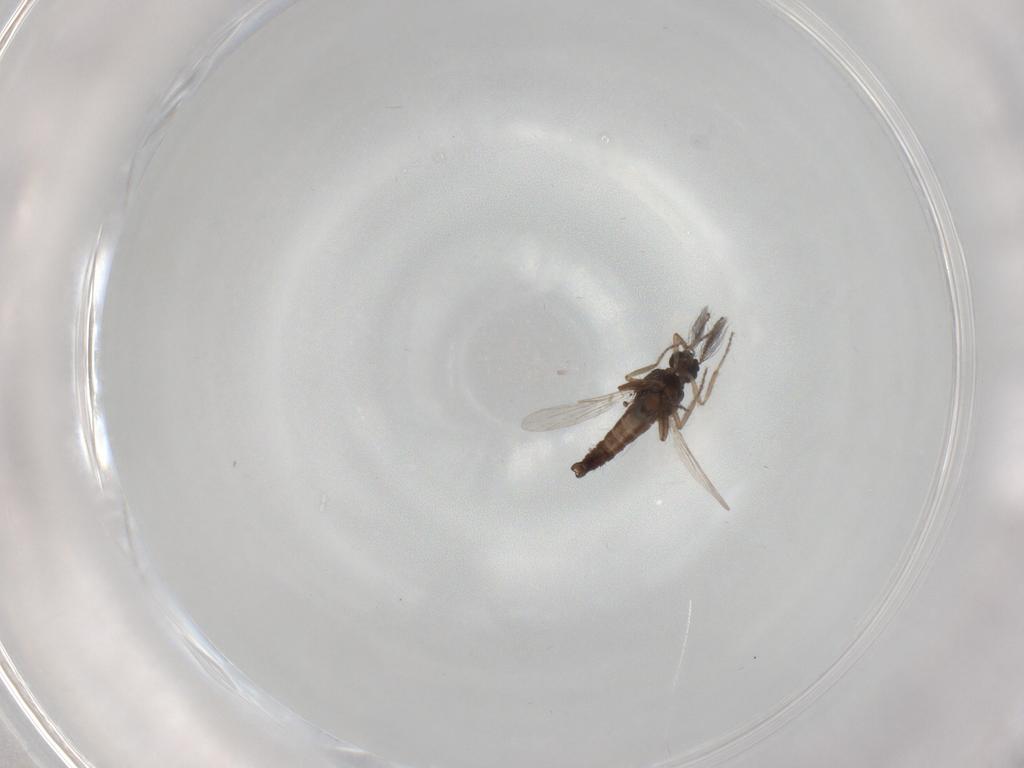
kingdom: Animalia
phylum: Arthropoda
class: Insecta
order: Diptera
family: Ceratopogonidae
